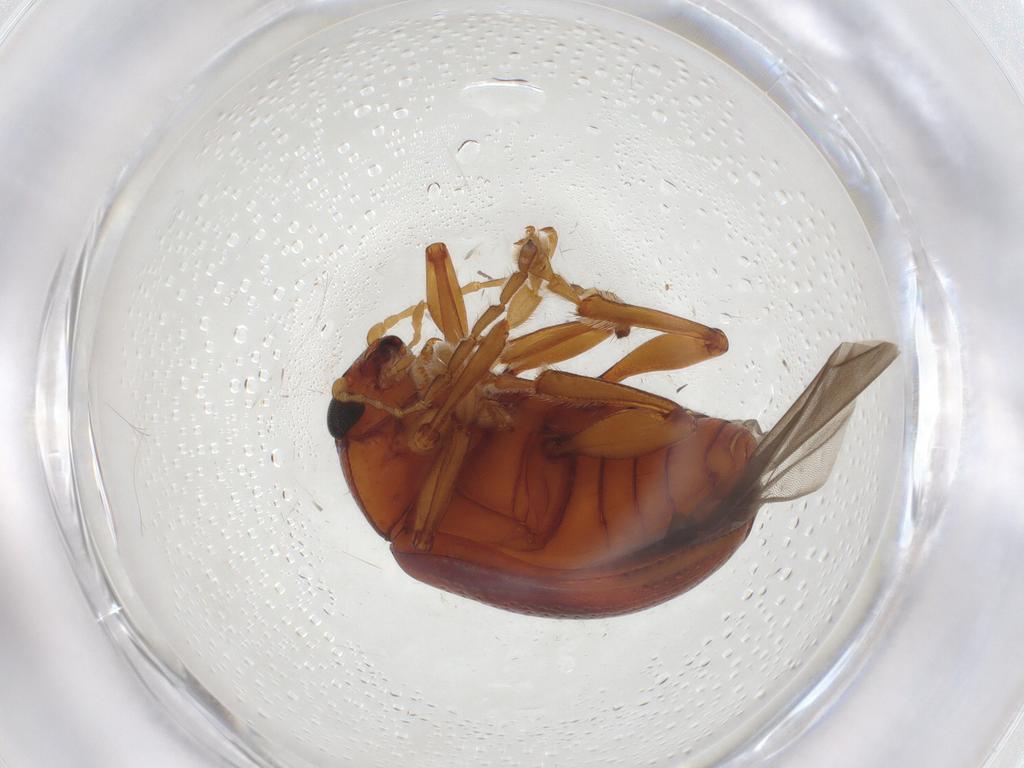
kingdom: Animalia
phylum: Arthropoda
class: Insecta
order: Coleoptera
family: Chrysomelidae
